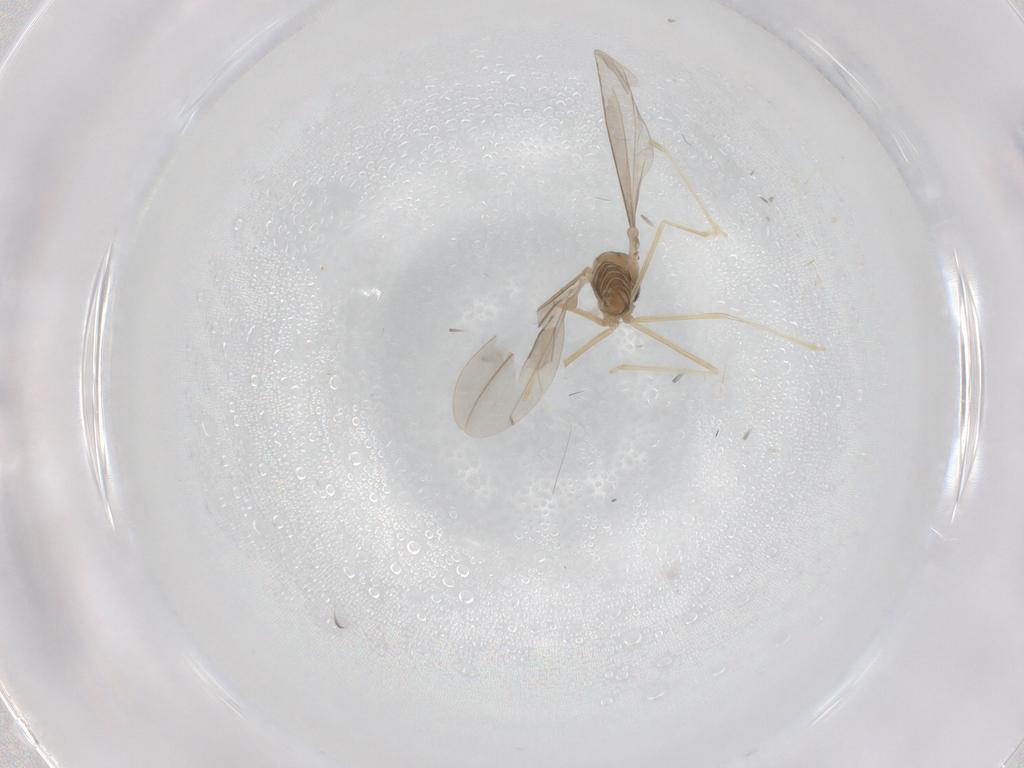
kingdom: Animalia
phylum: Arthropoda
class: Insecta
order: Diptera
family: Cecidomyiidae
